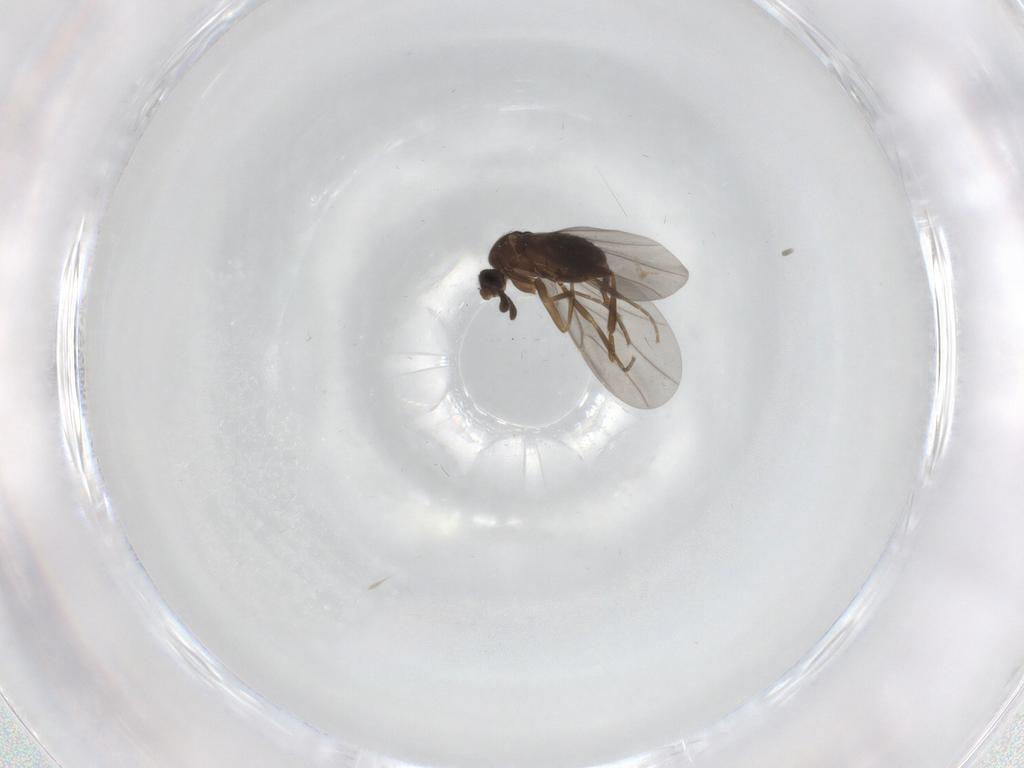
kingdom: Animalia
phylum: Arthropoda
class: Insecta
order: Diptera
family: Phoridae
